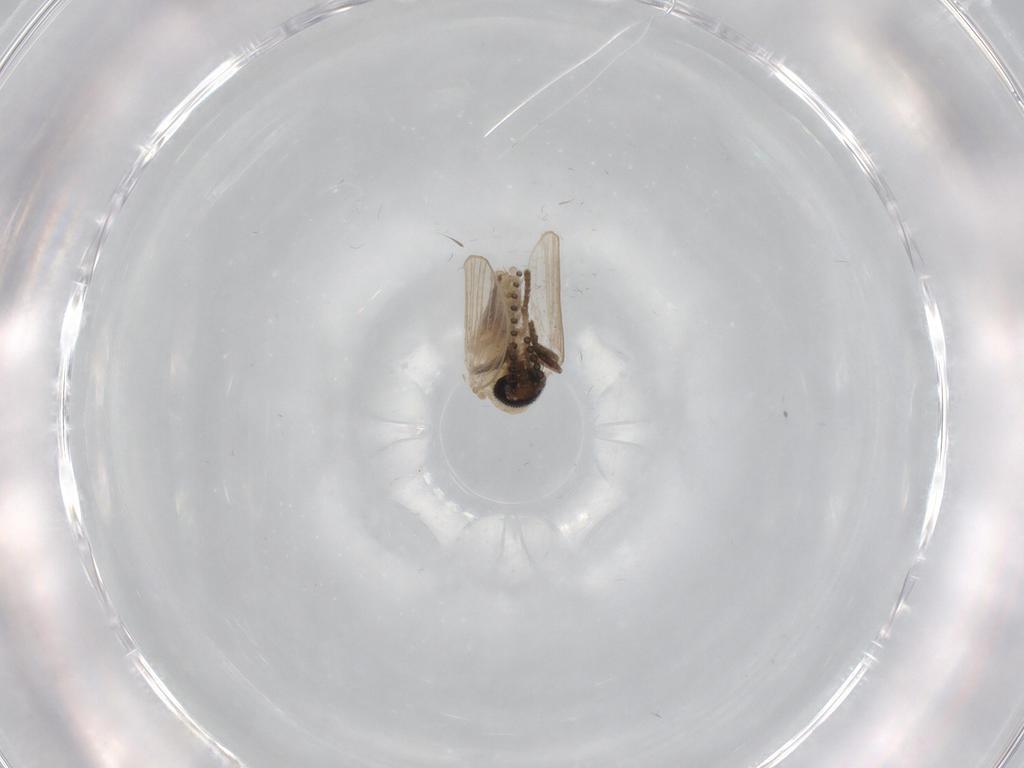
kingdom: Animalia
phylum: Arthropoda
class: Insecta
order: Diptera
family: Psychodidae
